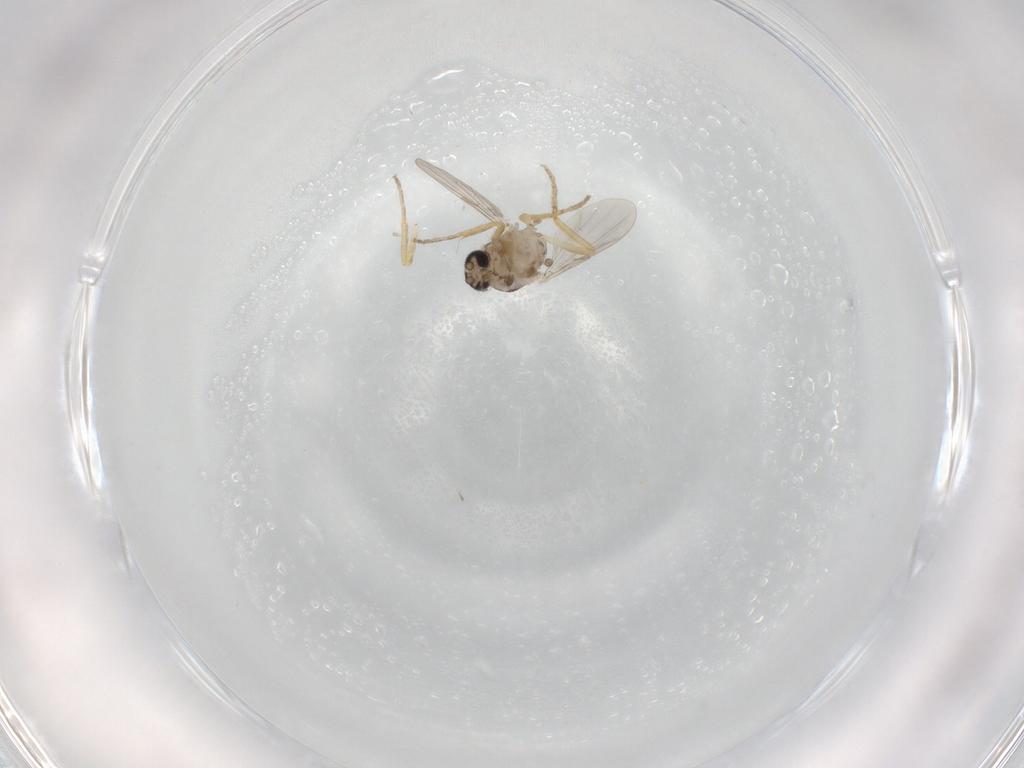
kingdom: Animalia
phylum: Arthropoda
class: Insecta
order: Diptera
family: Ceratopogonidae
